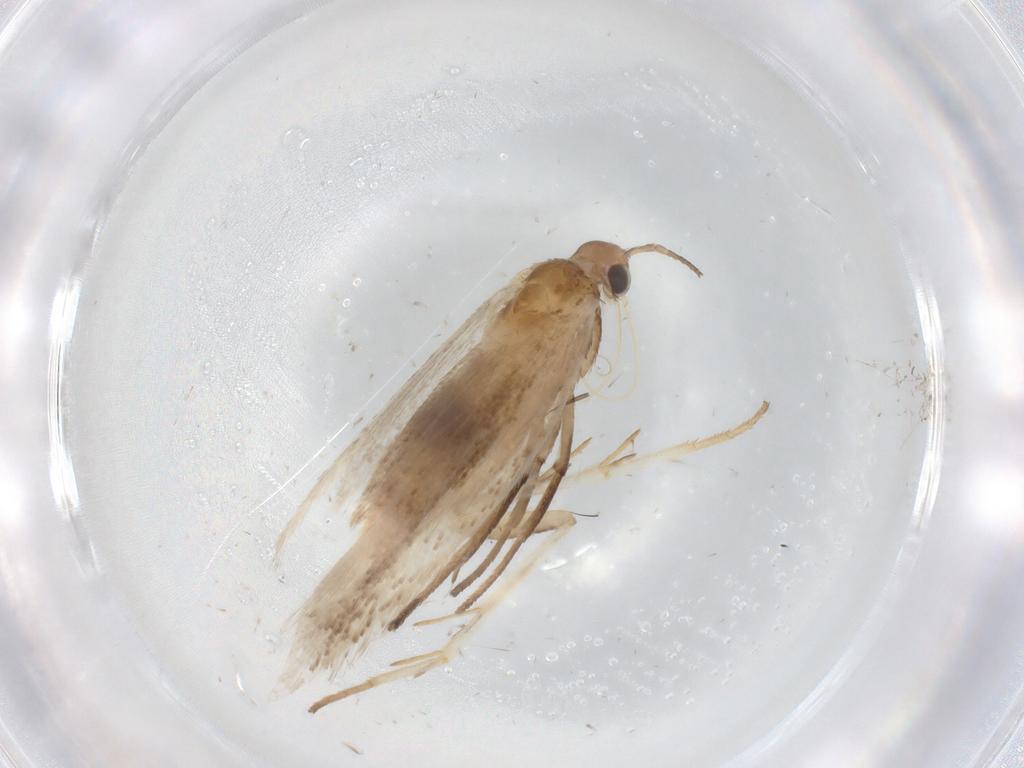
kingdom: Animalia
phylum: Arthropoda
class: Insecta
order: Lepidoptera
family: Gelechiidae
